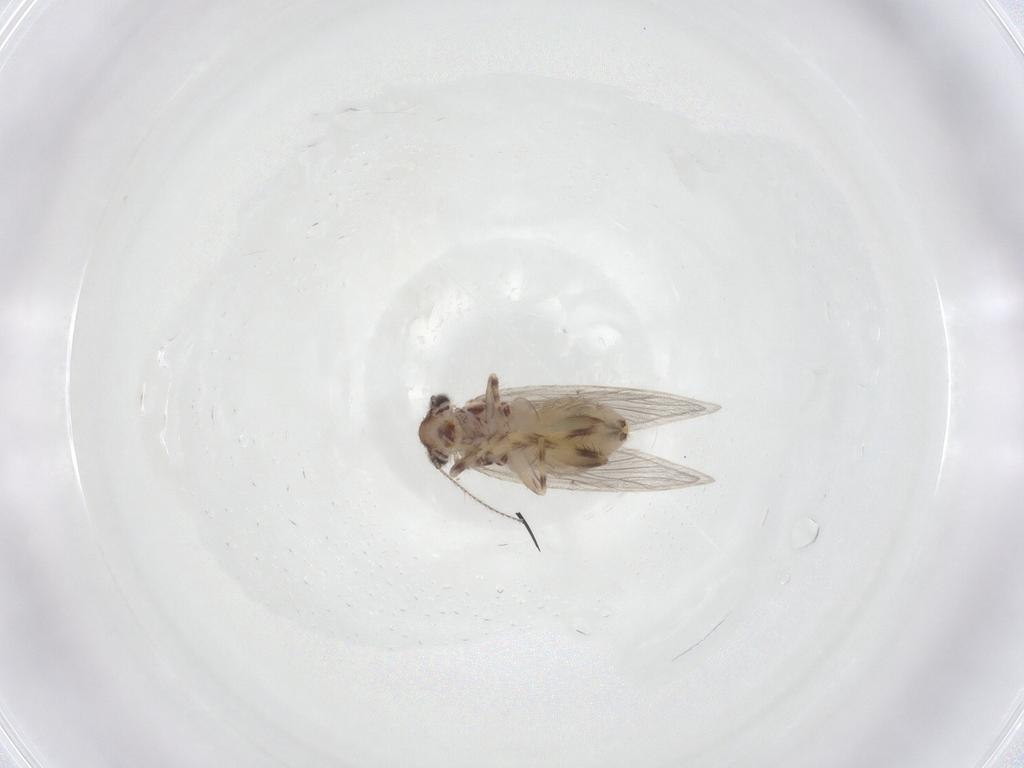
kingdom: Animalia
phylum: Arthropoda
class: Insecta
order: Psocodea
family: Lepidopsocidae
